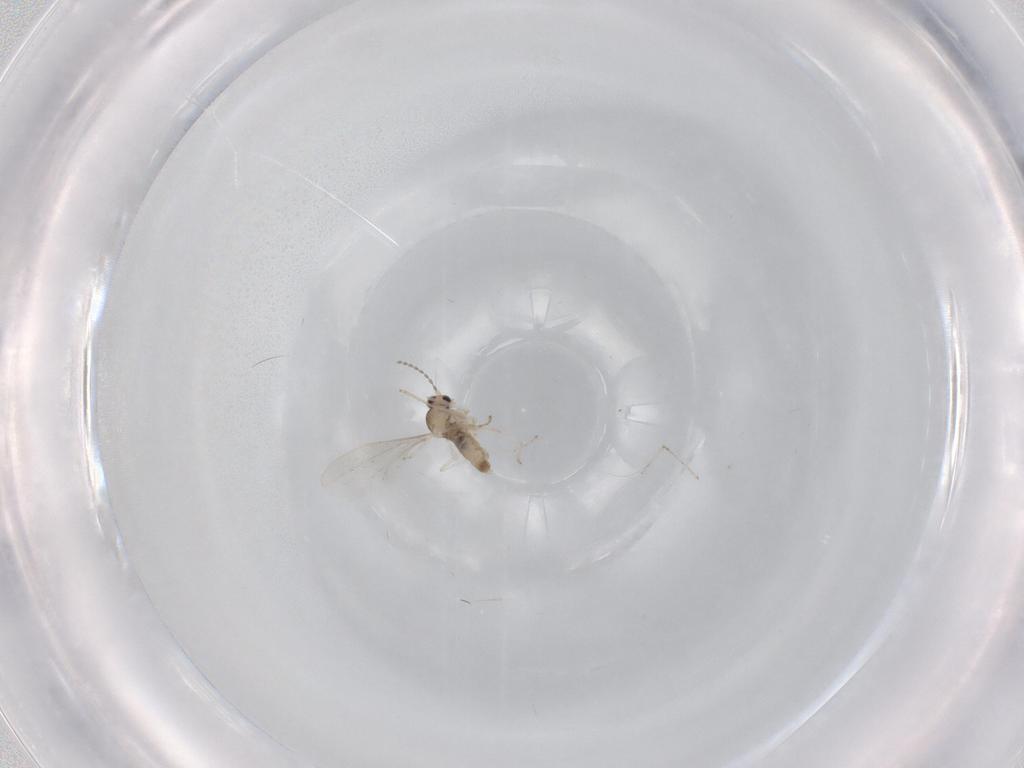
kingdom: Animalia
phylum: Arthropoda
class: Insecta
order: Diptera
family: Cecidomyiidae
